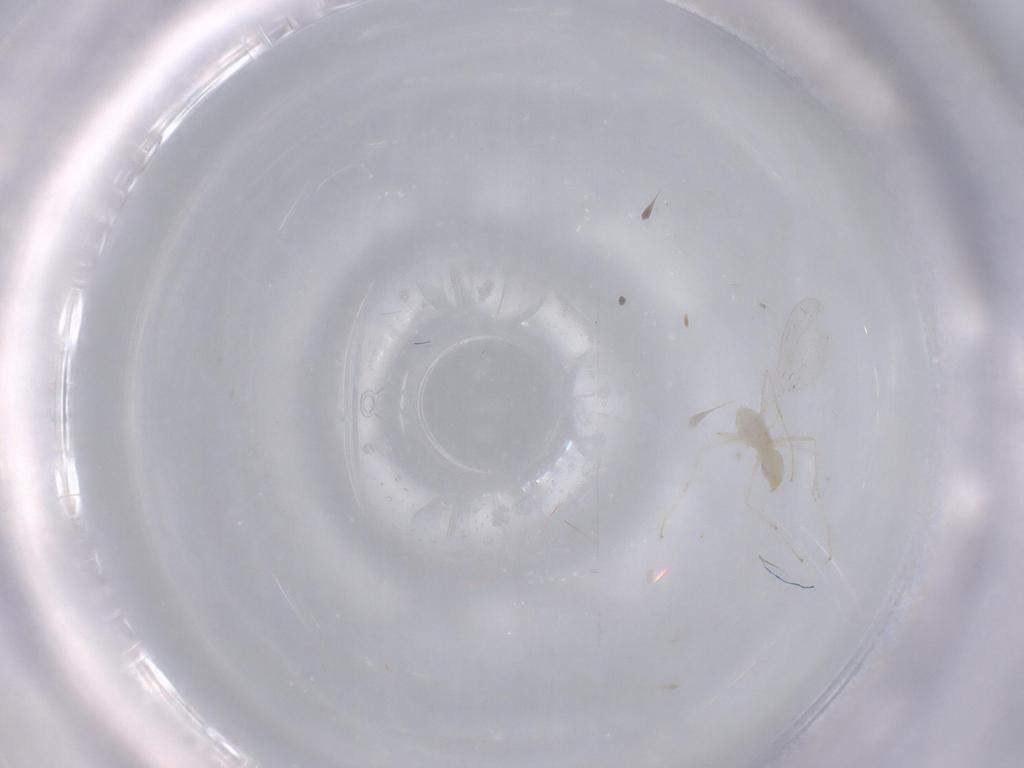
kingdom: Animalia
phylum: Arthropoda
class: Insecta
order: Diptera
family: Cecidomyiidae
